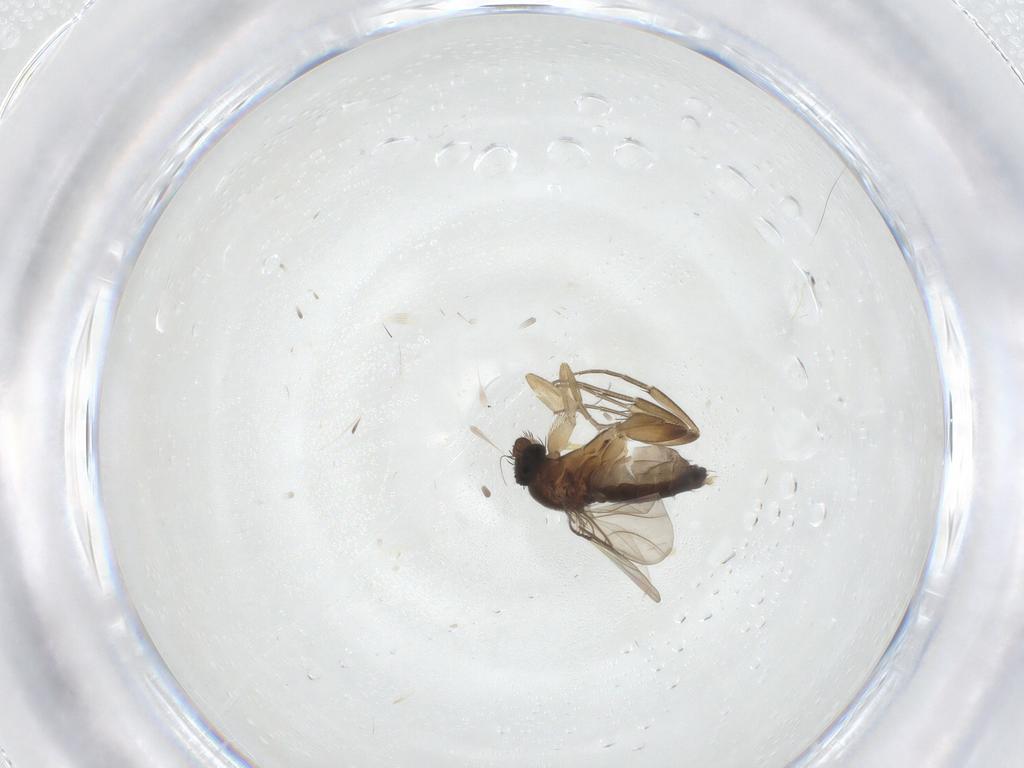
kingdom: Animalia
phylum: Arthropoda
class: Insecta
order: Diptera
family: Phoridae
